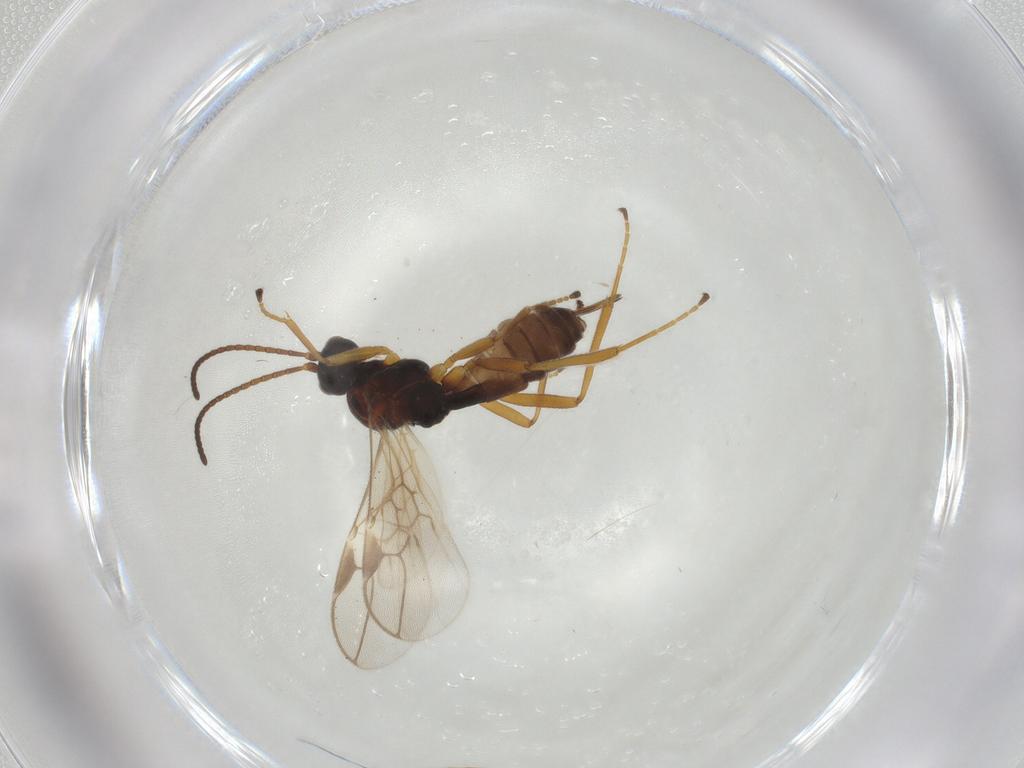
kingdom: Animalia
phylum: Arthropoda
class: Insecta
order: Hymenoptera
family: Braconidae
